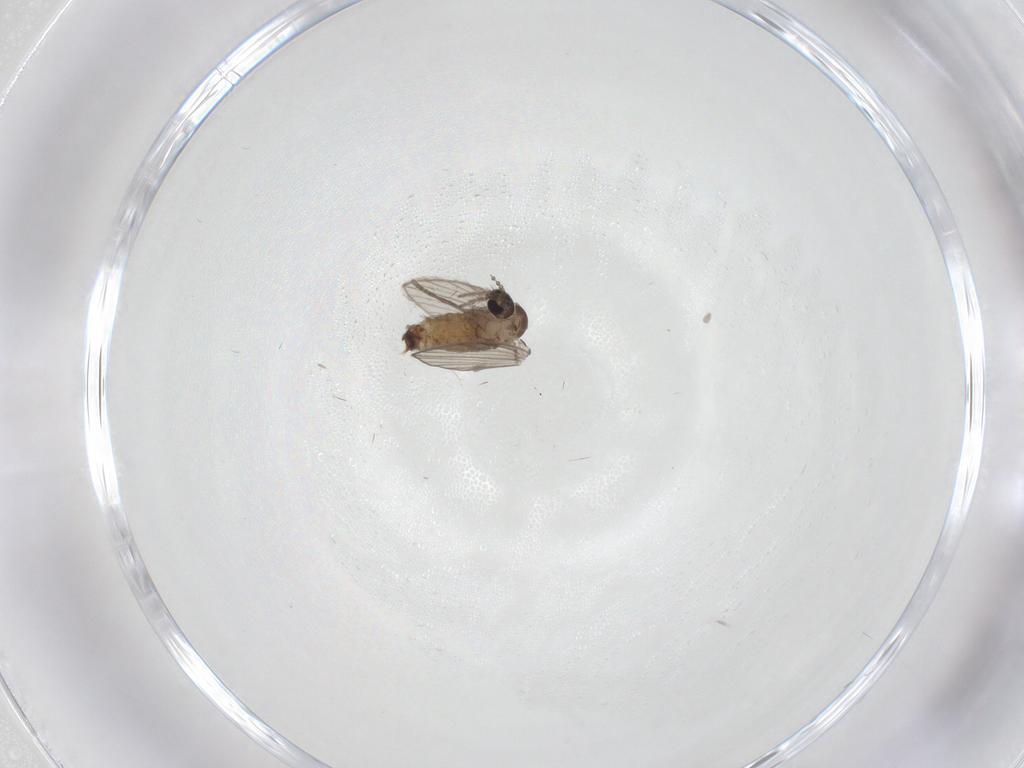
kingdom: Animalia
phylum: Arthropoda
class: Insecta
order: Diptera
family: Psychodidae
